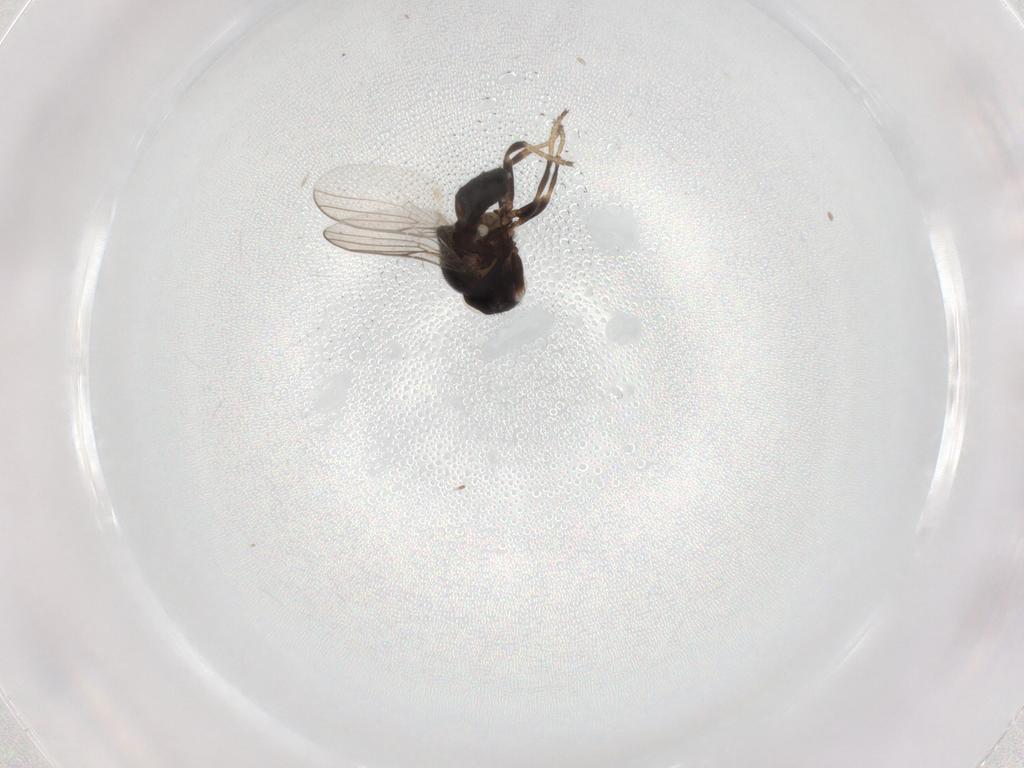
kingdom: Animalia
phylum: Arthropoda
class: Insecta
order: Diptera
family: Chloropidae
